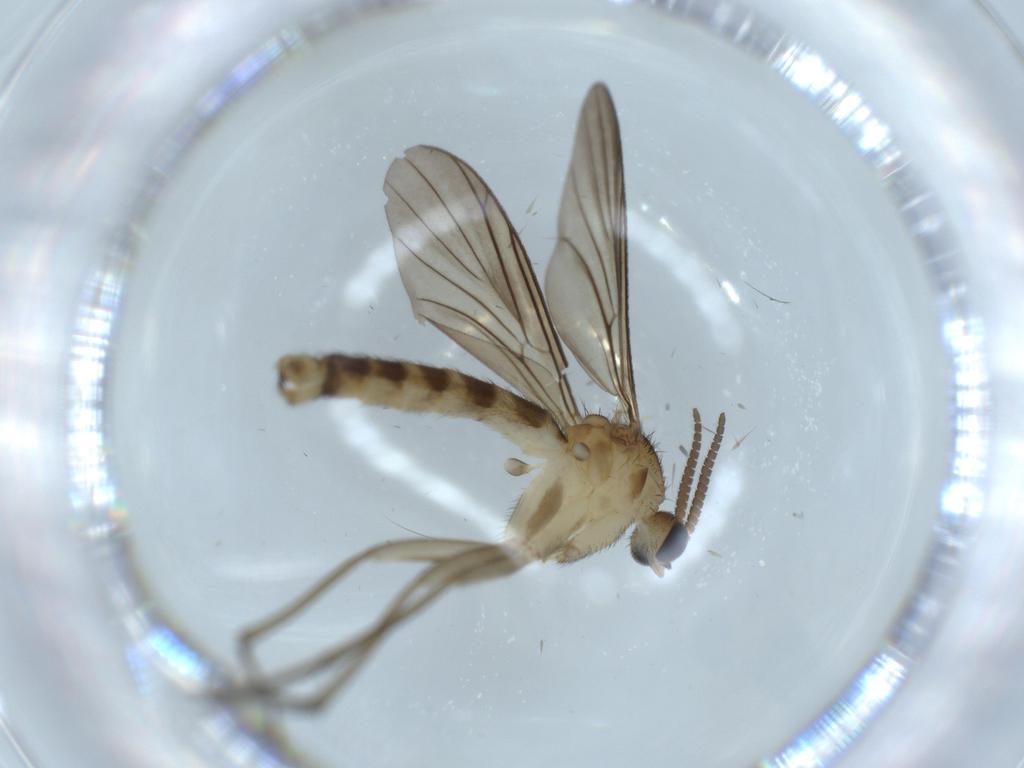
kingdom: Animalia
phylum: Arthropoda
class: Insecta
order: Diptera
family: Drosophilidae
